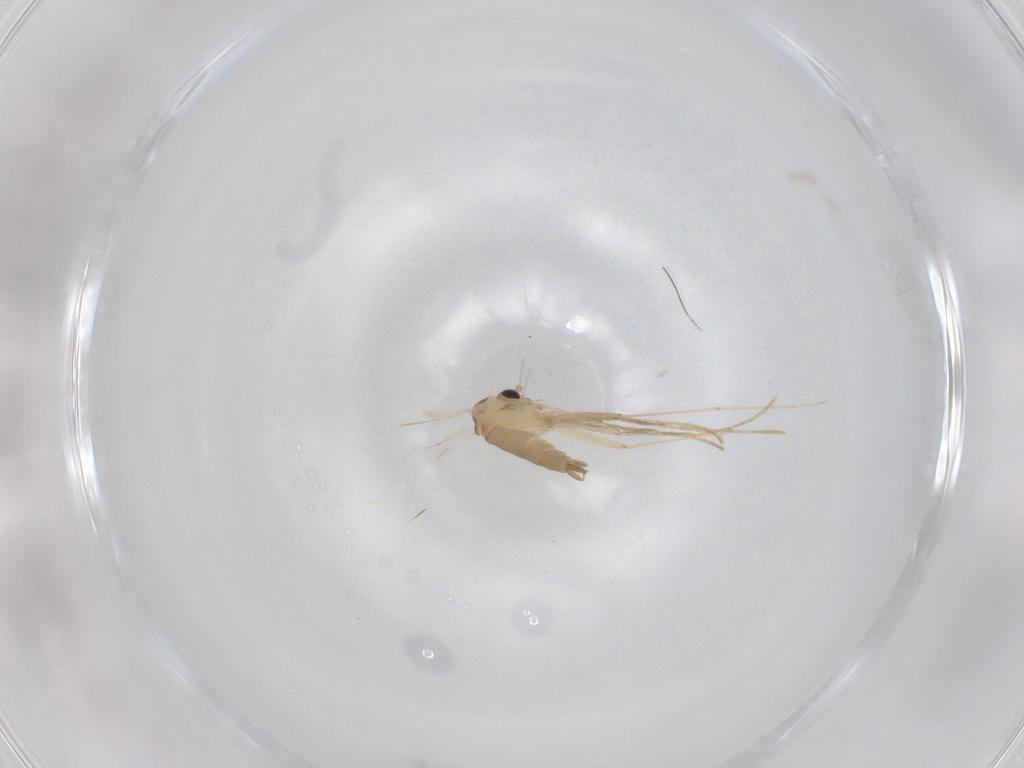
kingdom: Animalia
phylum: Arthropoda
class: Insecta
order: Diptera
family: Psychodidae
